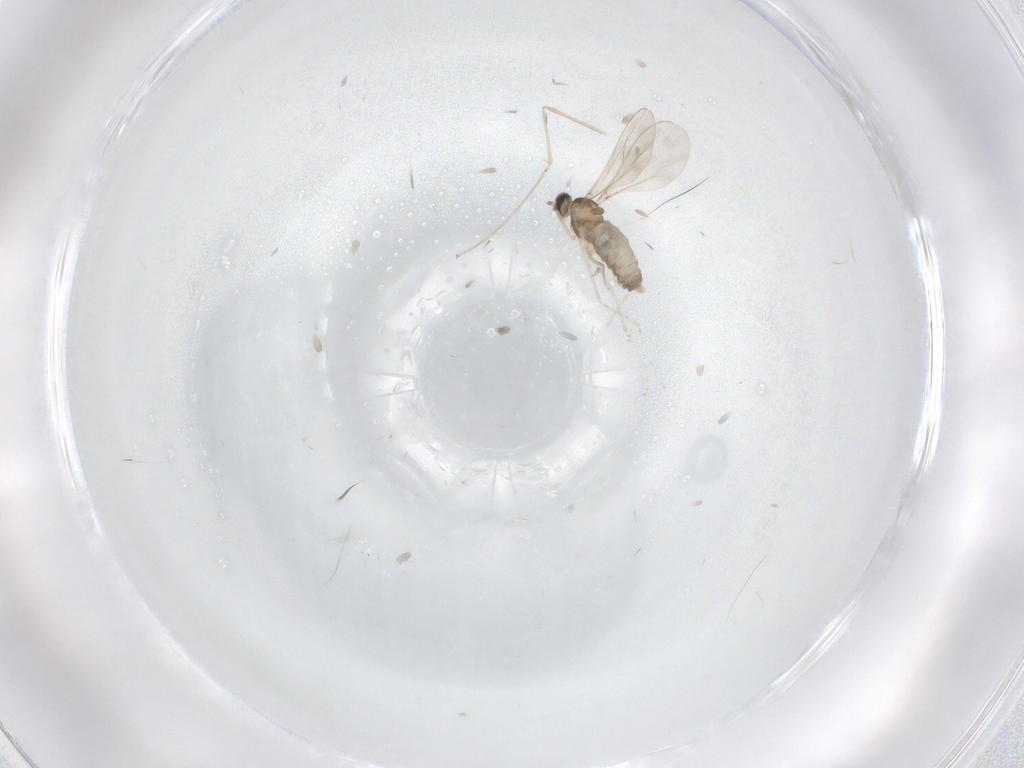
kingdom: Animalia
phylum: Arthropoda
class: Insecta
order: Diptera
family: Cecidomyiidae
